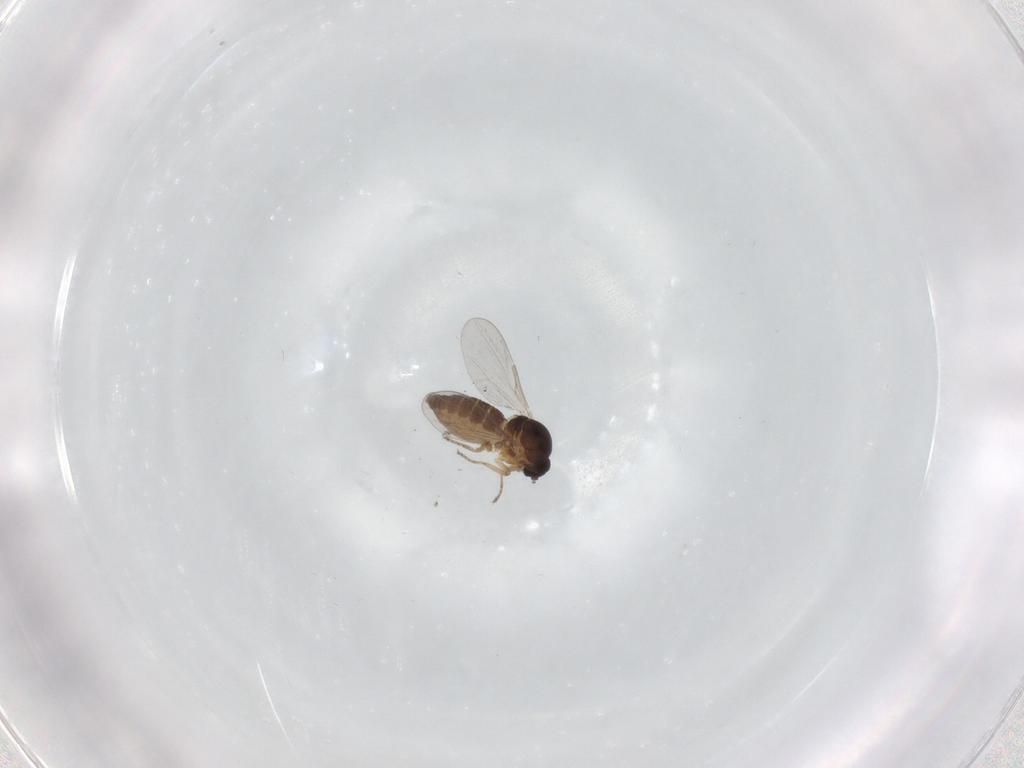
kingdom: Animalia
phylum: Arthropoda
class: Insecta
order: Diptera
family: Ceratopogonidae
